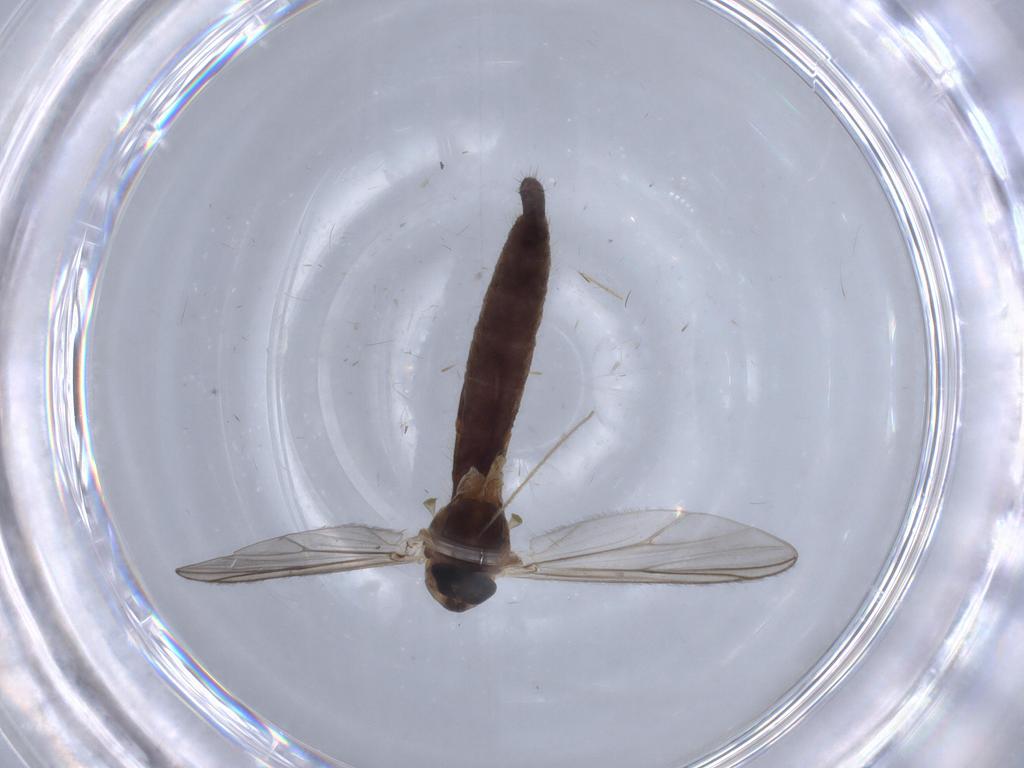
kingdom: Animalia
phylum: Arthropoda
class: Insecta
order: Diptera
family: Chironomidae
